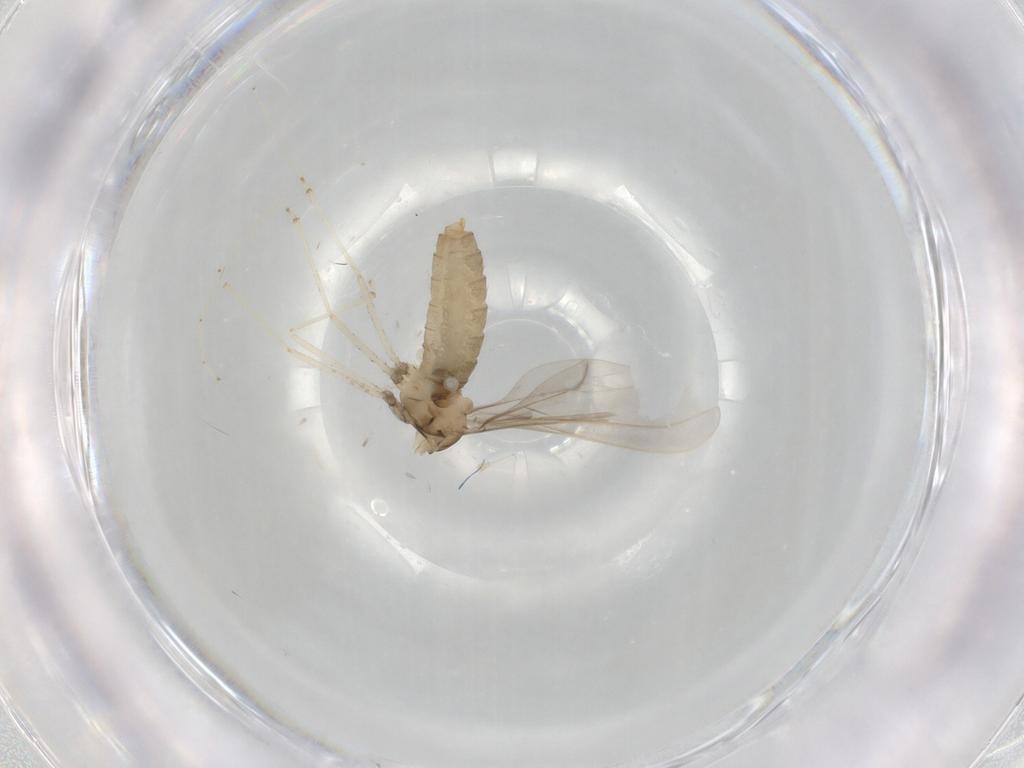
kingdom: Animalia
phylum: Arthropoda
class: Insecta
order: Diptera
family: Cecidomyiidae
